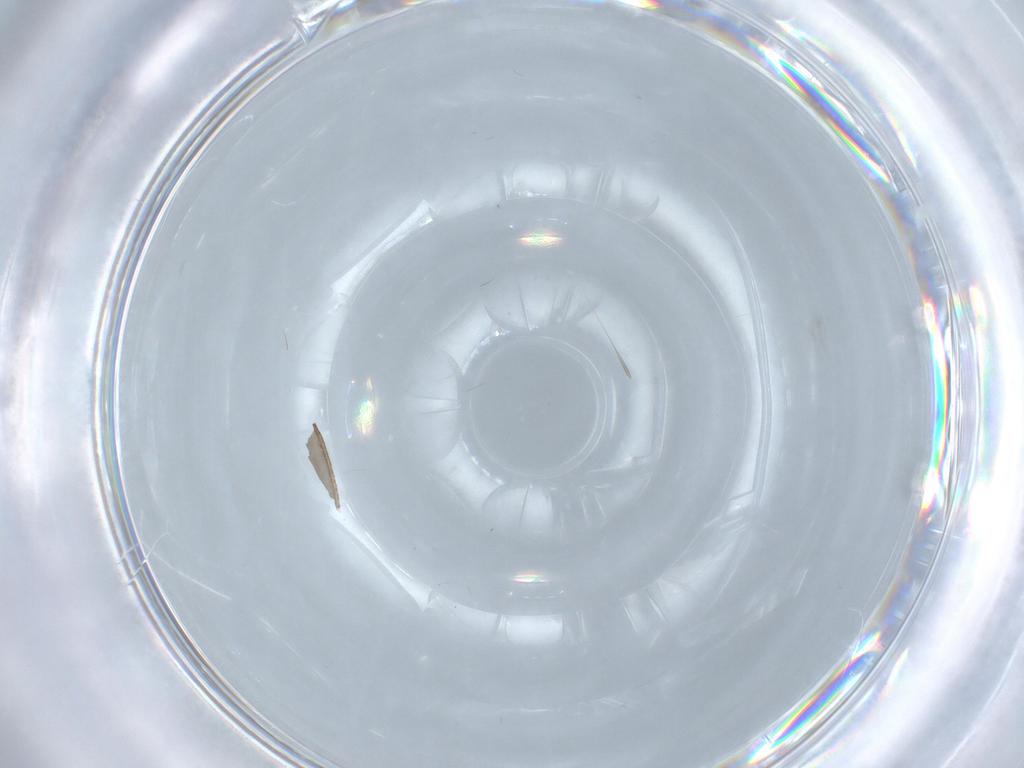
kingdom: Animalia
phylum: Arthropoda
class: Insecta
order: Hemiptera
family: Cixiidae
